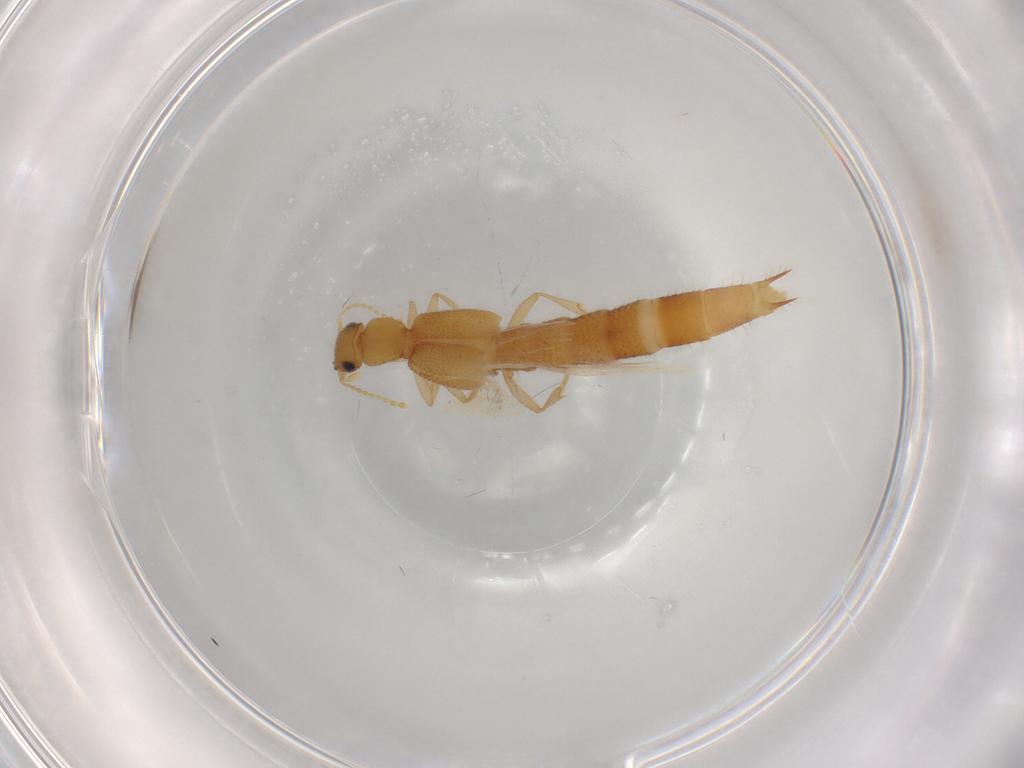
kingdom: Animalia
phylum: Arthropoda
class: Insecta
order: Coleoptera
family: Staphylinidae
